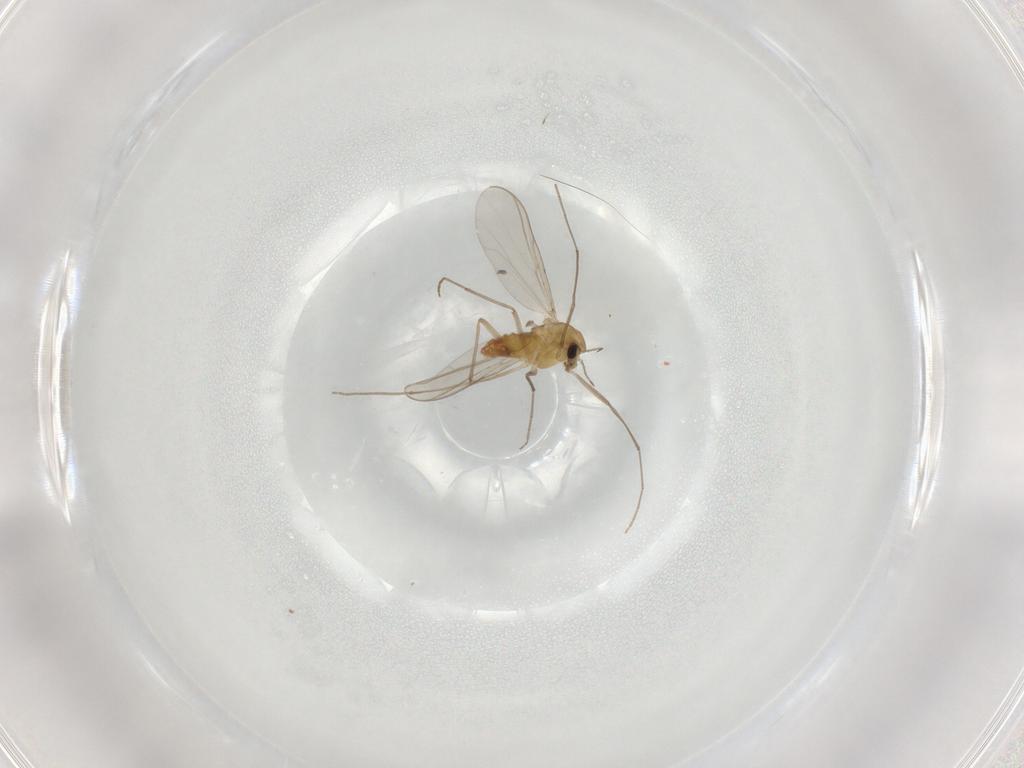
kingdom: Animalia
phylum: Arthropoda
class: Insecta
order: Diptera
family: Chironomidae
